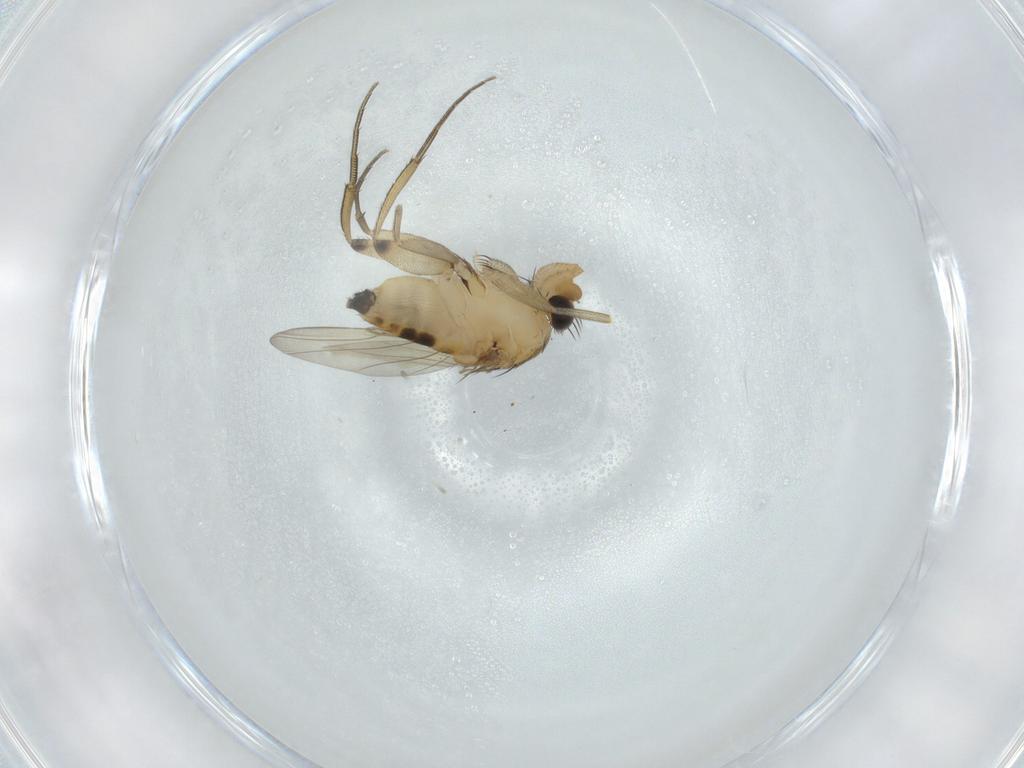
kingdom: Animalia
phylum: Arthropoda
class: Insecta
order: Diptera
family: Phoridae
